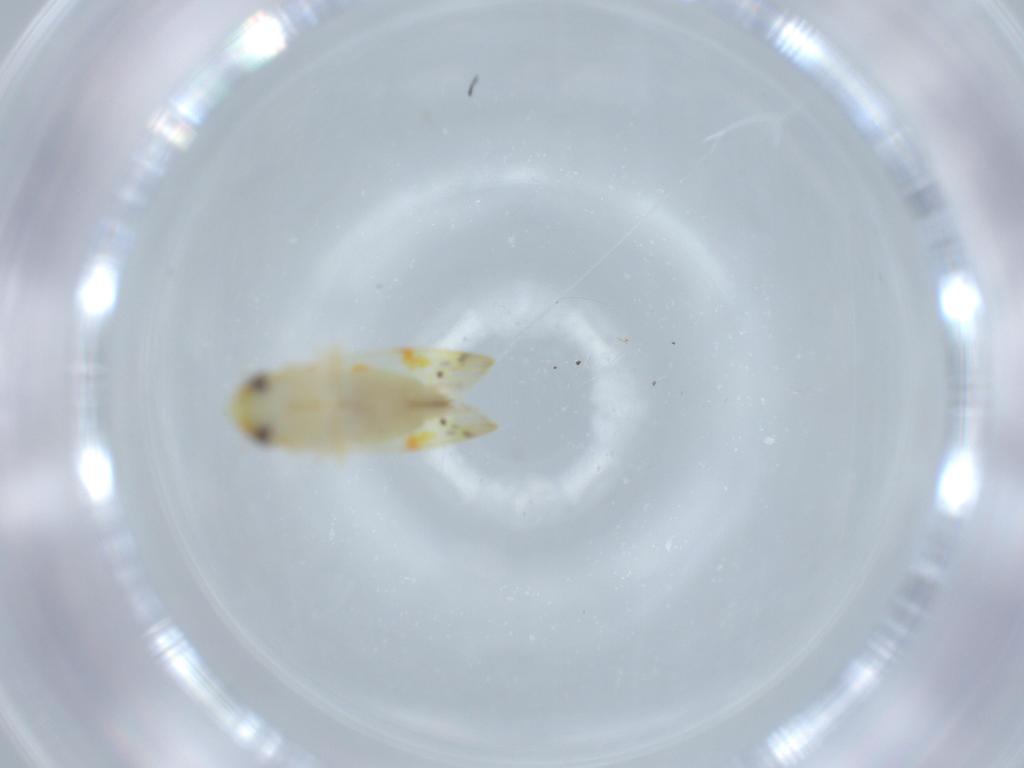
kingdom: Animalia
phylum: Arthropoda
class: Insecta
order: Hemiptera
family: Cicadellidae
